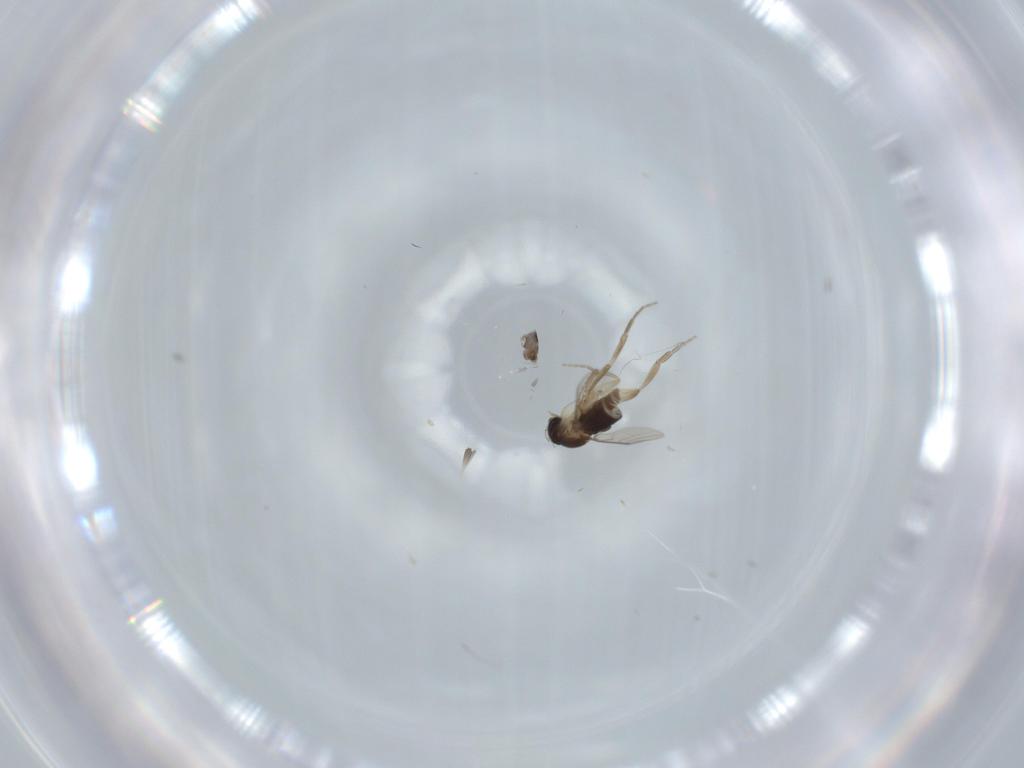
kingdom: Animalia
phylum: Arthropoda
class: Insecta
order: Diptera
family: Phoridae
